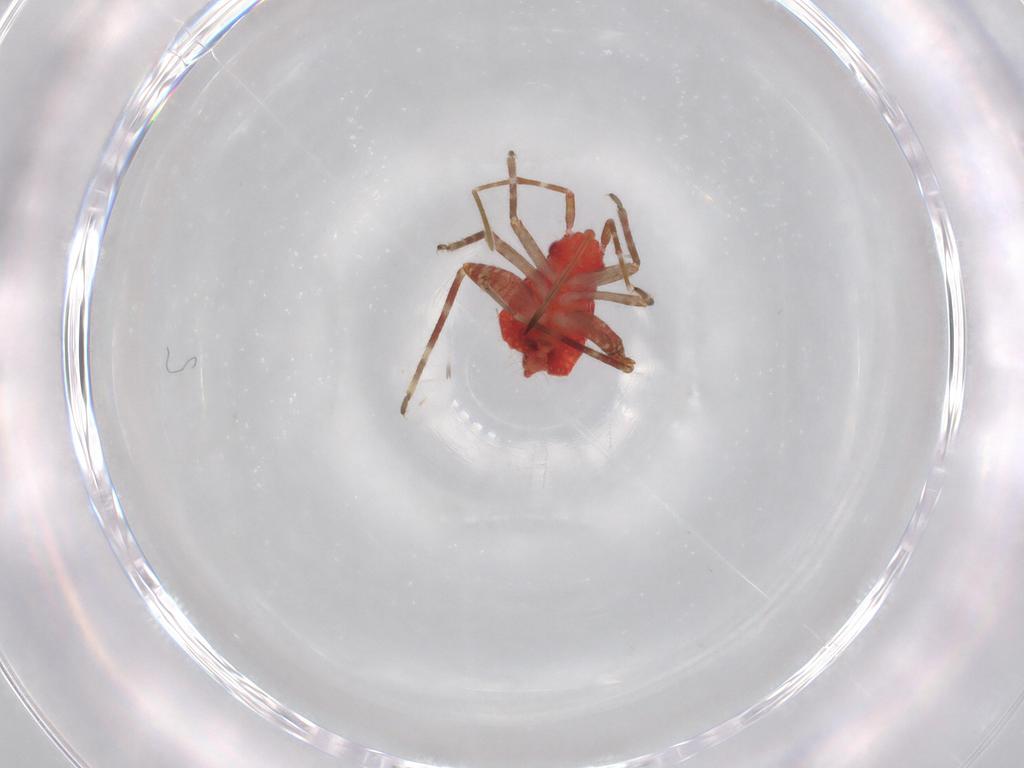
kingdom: Animalia
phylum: Arthropoda
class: Insecta
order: Hemiptera
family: Miridae
